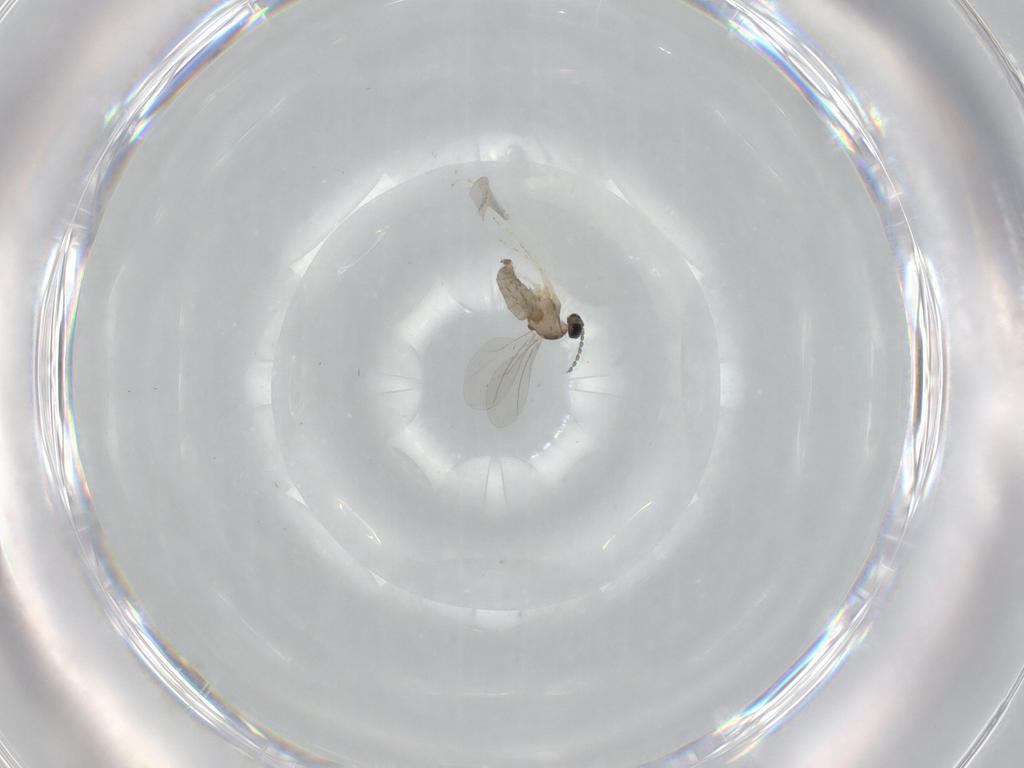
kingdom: Animalia
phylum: Arthropoda
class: Insecta
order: Diptera
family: Cecidomyiidae
